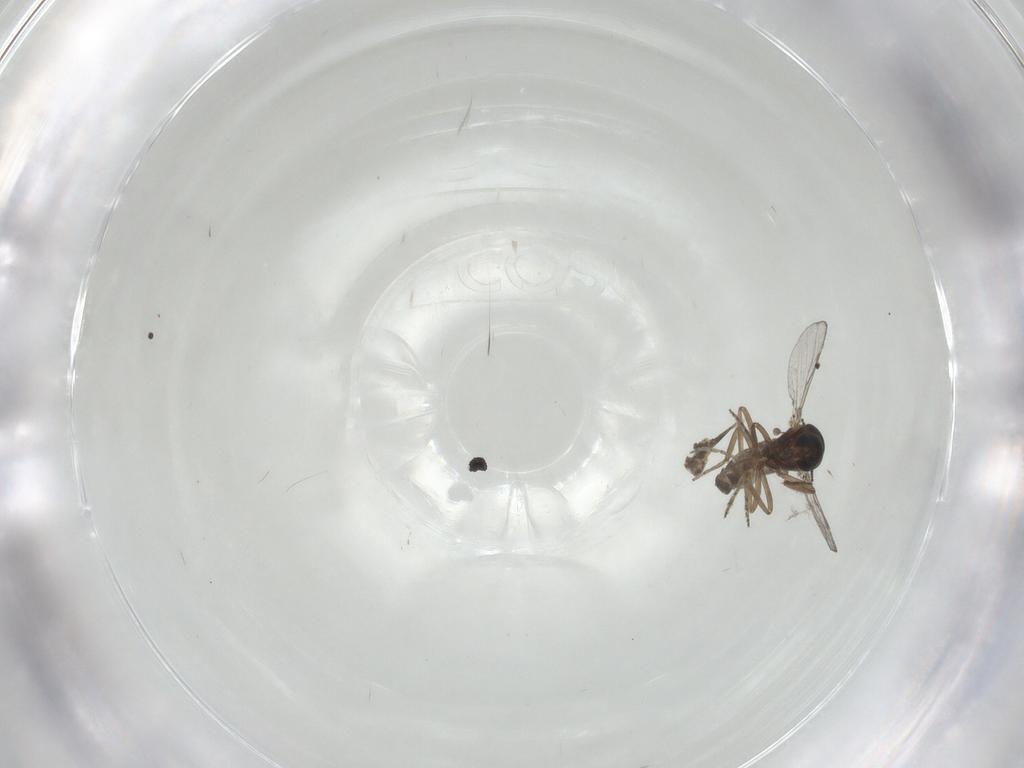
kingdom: Animalia
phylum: Arthropoda
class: Insecta
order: Diptera
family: Ceratopogonidae
